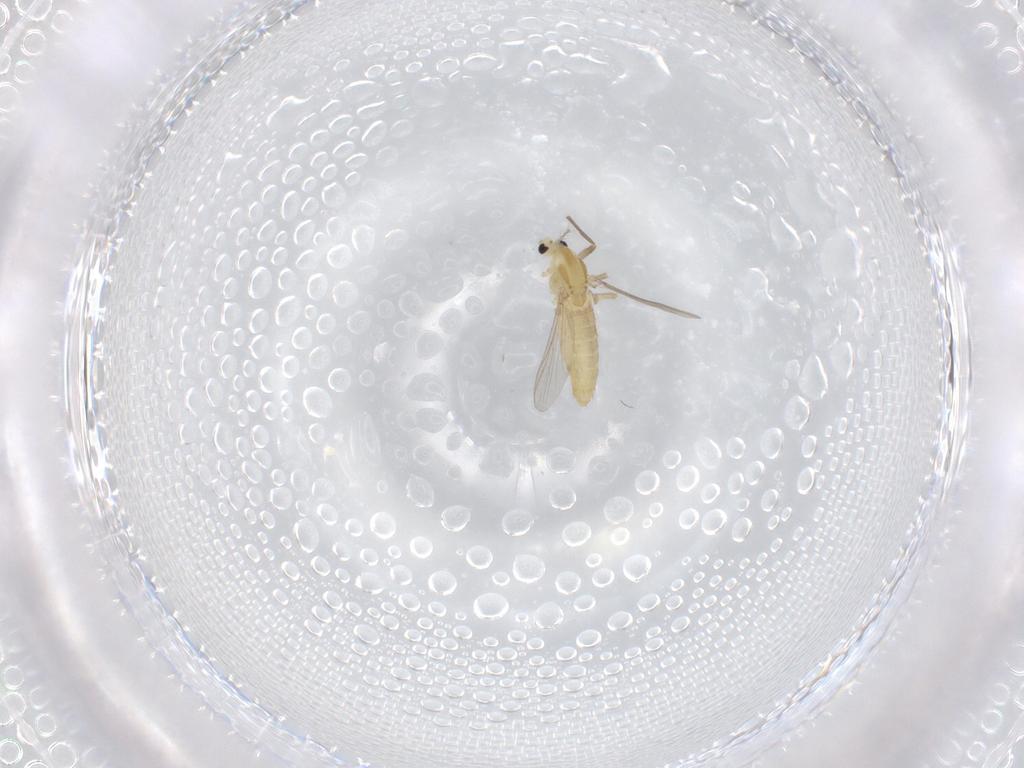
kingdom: Animalia
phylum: Arthropoda
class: Insecta
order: Diptera
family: Chironomidae
